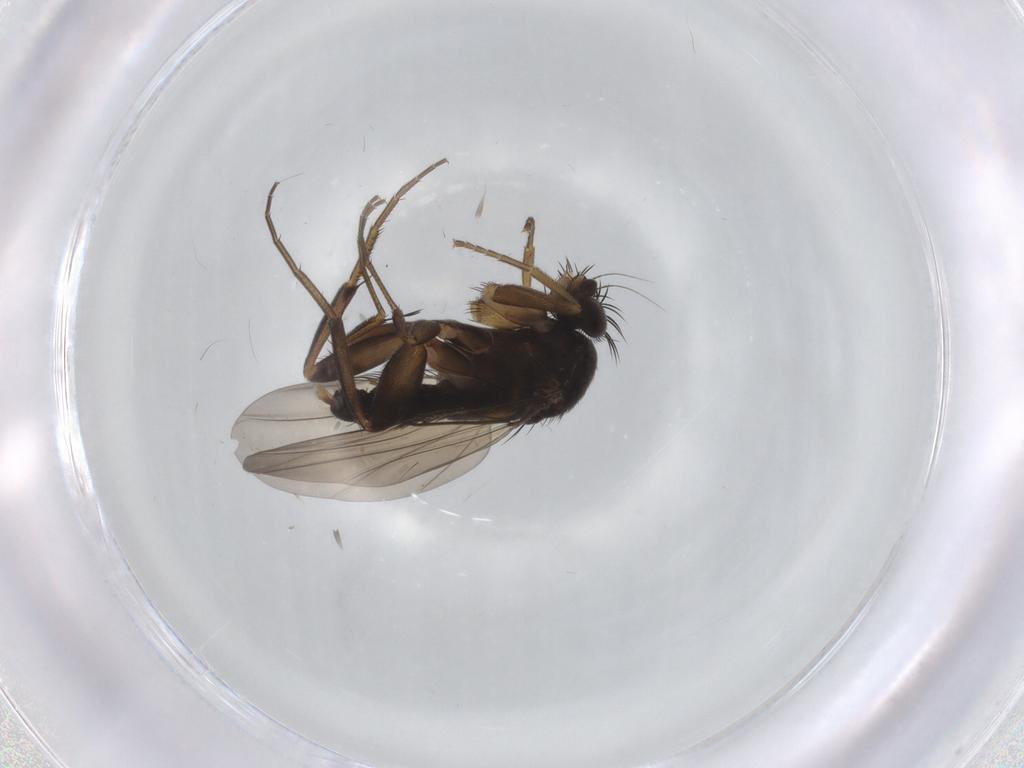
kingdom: Animalia
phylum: Arthropoda
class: Insecta
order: Diptera
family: Phoridae
